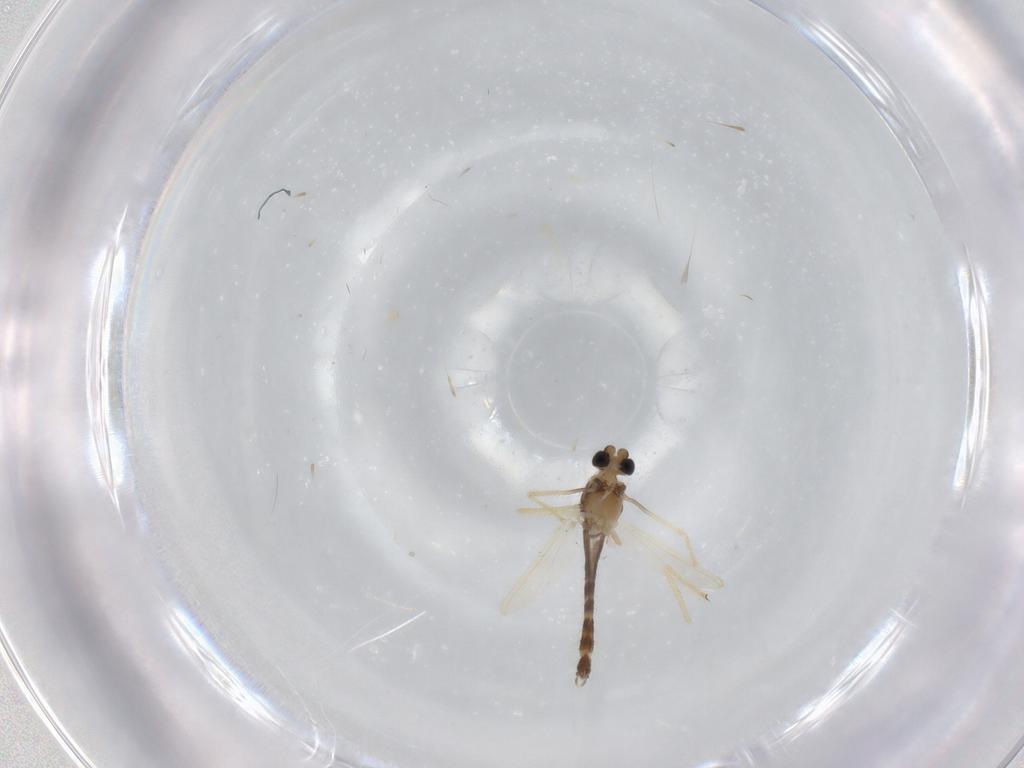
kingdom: Animalia
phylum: Arthropoda
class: Insecta
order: Diptera
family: Chironomidae
